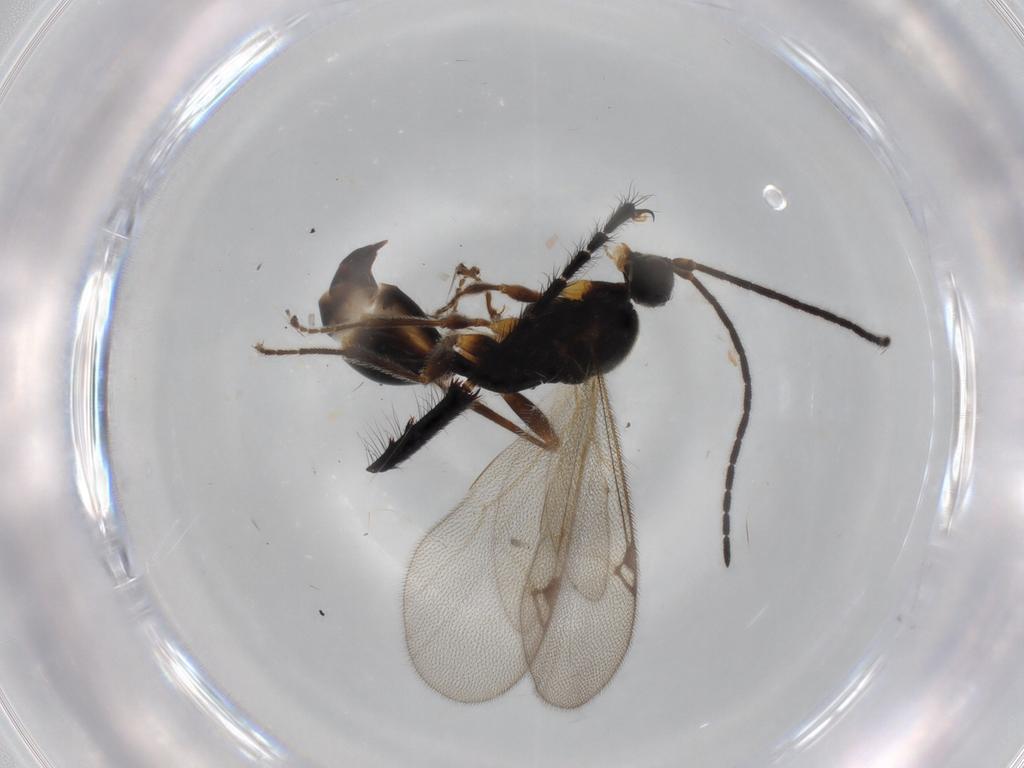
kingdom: Animalia
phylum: Arthropoda
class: Insecta
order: Hymenoptera
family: Proctotrupidae
